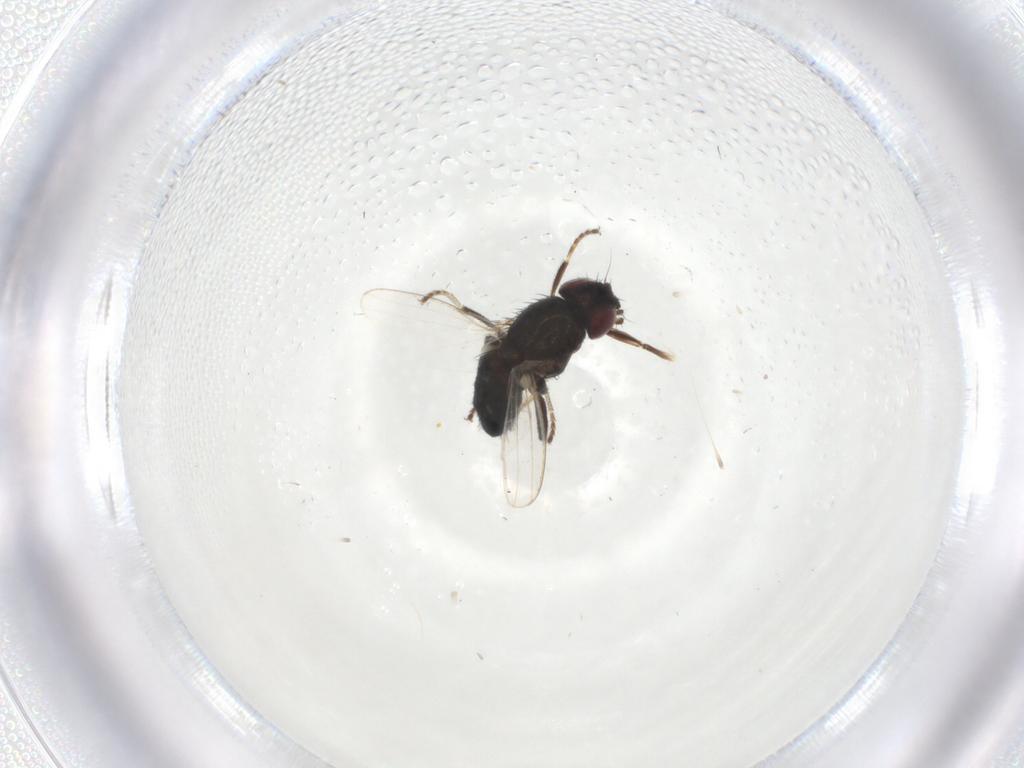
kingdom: Animalia
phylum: Arthropoda
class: Insecta
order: Diptera
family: Milichiidae
